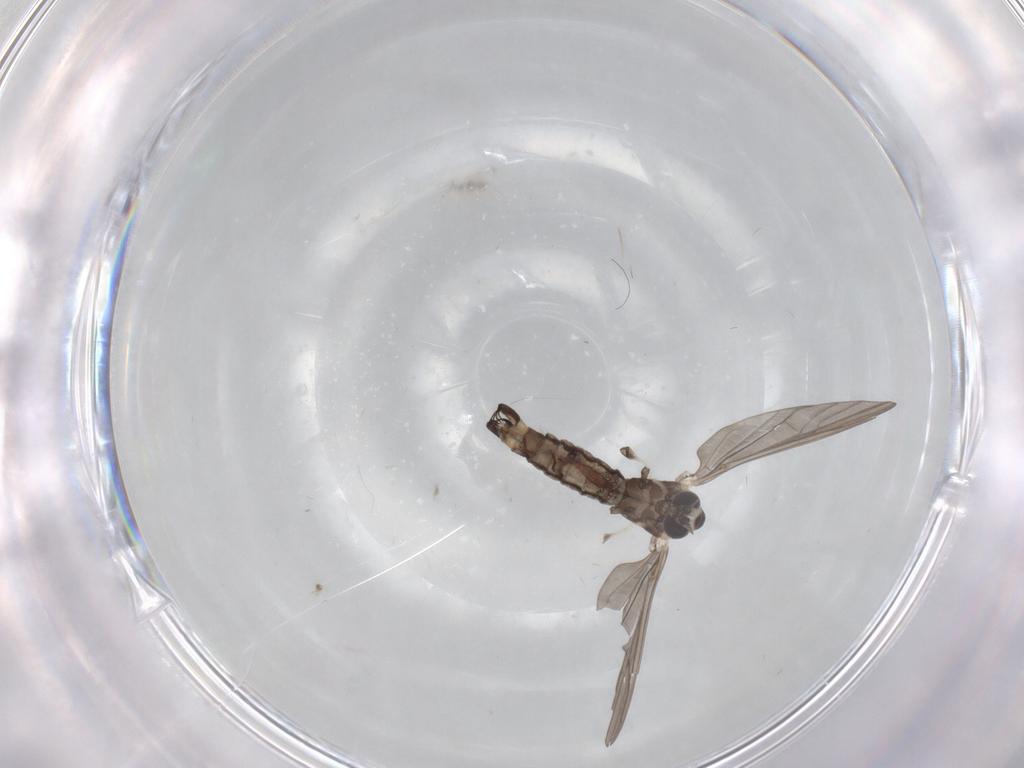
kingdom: Animalia
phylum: Arthropoda
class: Insecta
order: Diptera
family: Limoniidae
